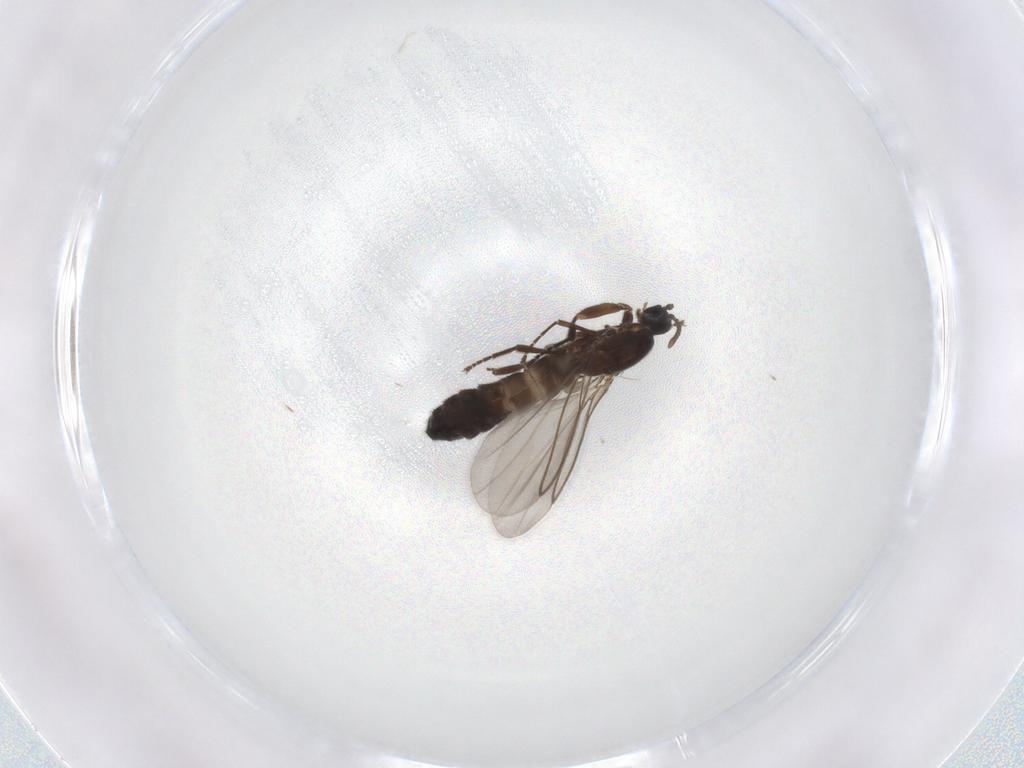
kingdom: Animalia
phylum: Arthropoda
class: Insecta
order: Diptera
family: Scatopsidae
